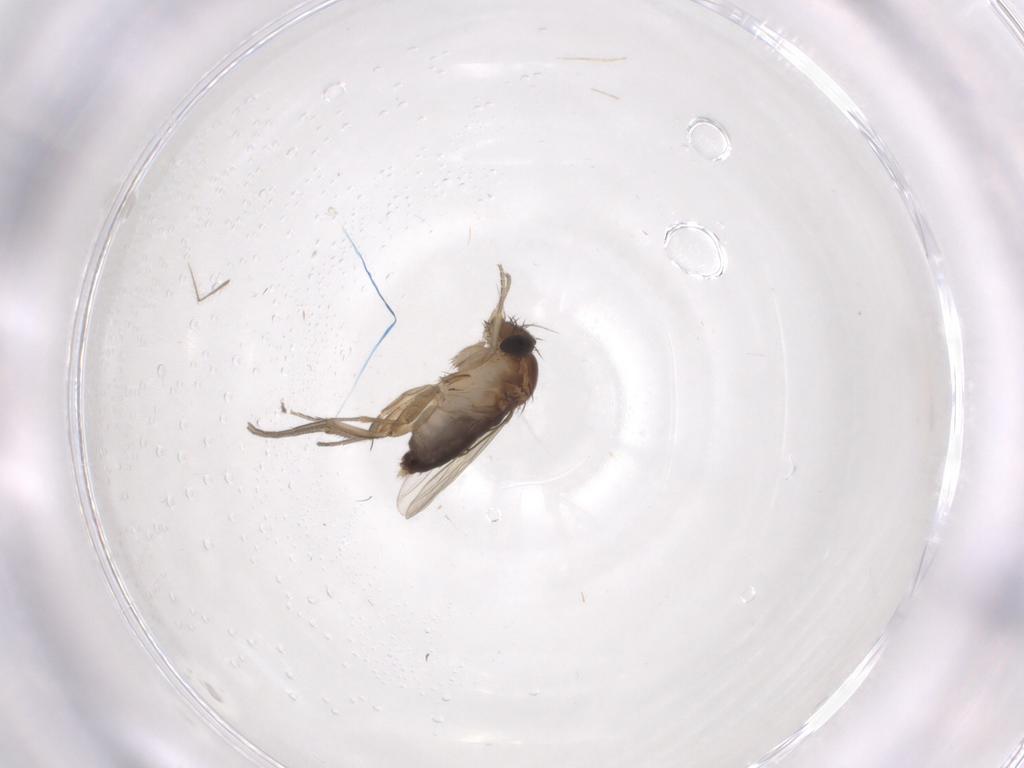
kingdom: Animalia
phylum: Arthropoda
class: Insecta
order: Diptera
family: Phoridae
